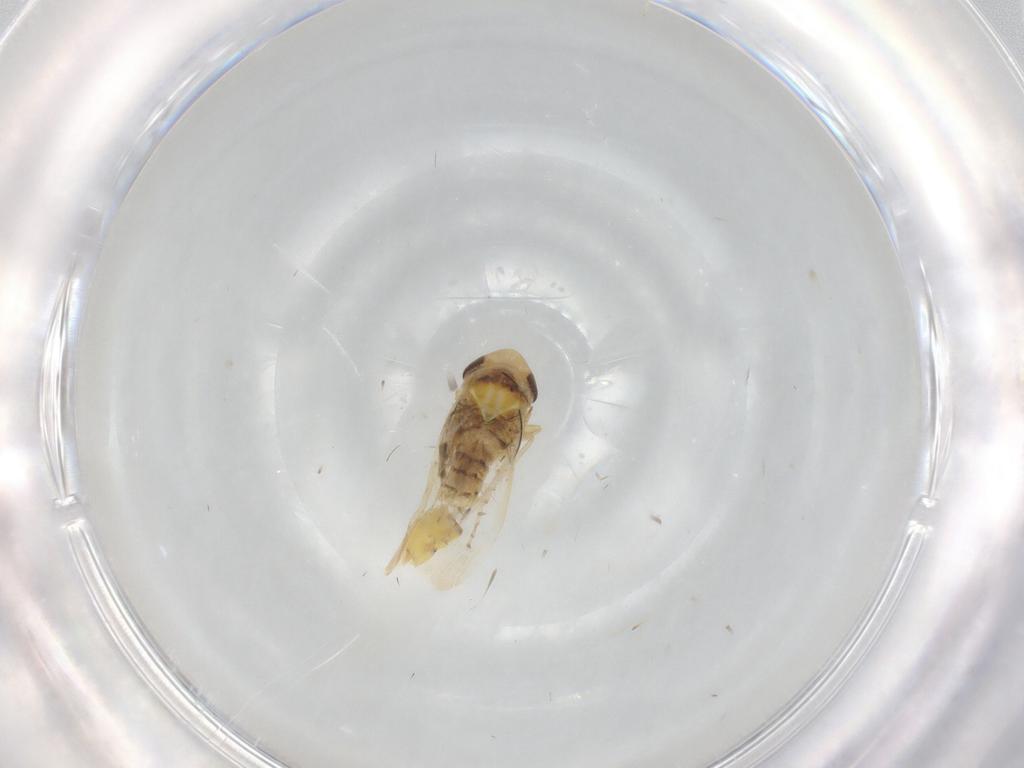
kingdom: Animalia
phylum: Arthropoda
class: Insecta
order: Hemiptera
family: Cicadellidae
